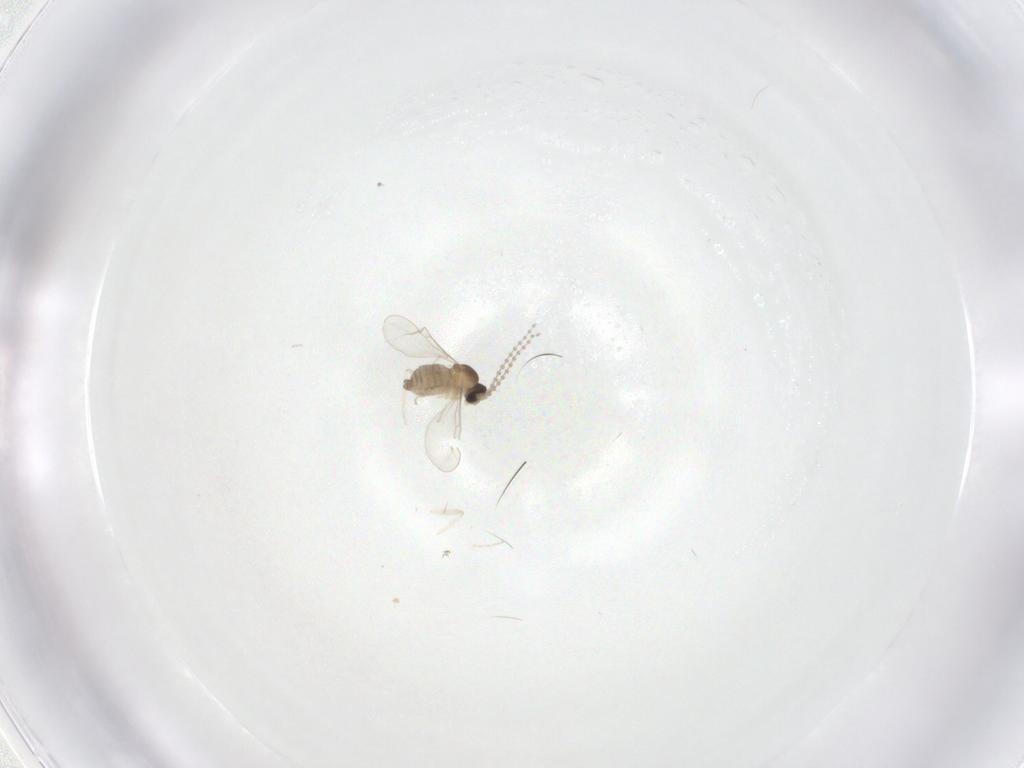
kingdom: Animalia
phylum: Arthropoda
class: Insecta
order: Diptera
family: Cecidomyiidae
